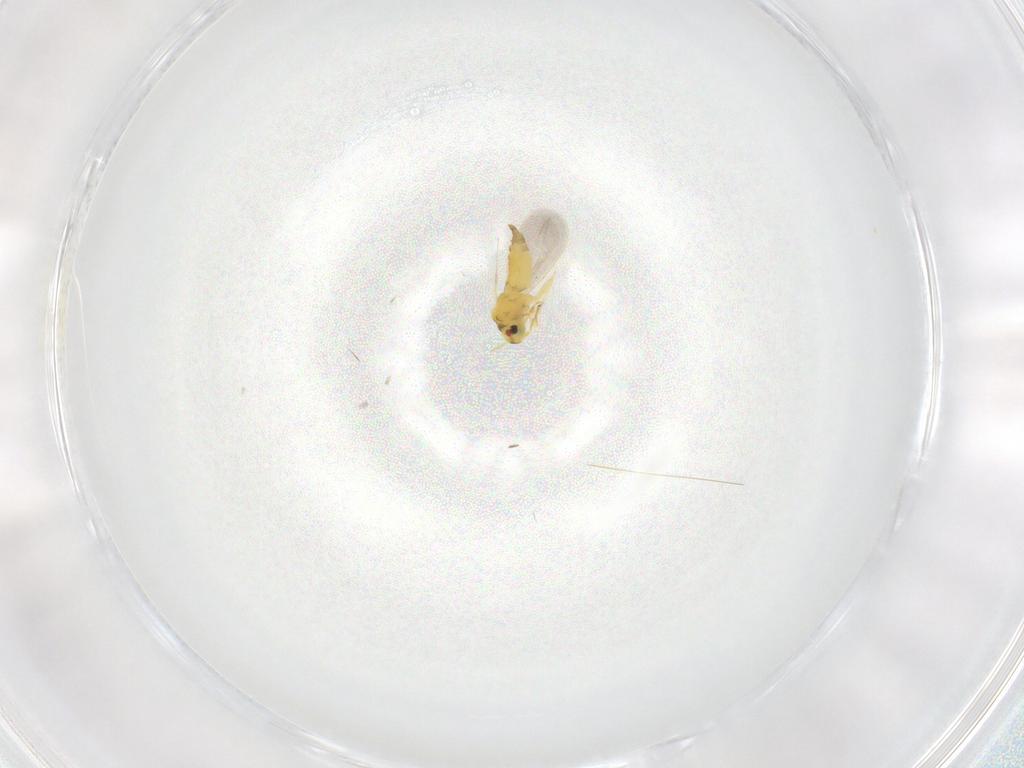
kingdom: Animalia
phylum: Arthropoda
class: Insecta
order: Hemiptera
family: Aleyrodidae
